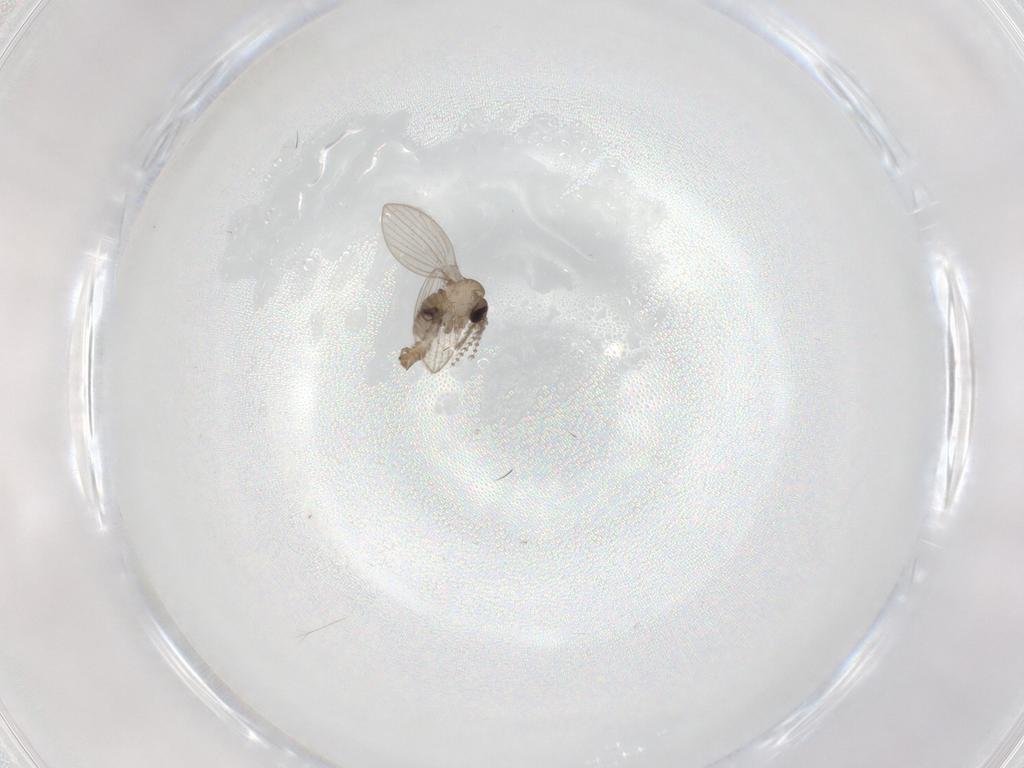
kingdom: Animalia
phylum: Arthropoda
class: Insecta
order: Diptera
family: Psychodidae
